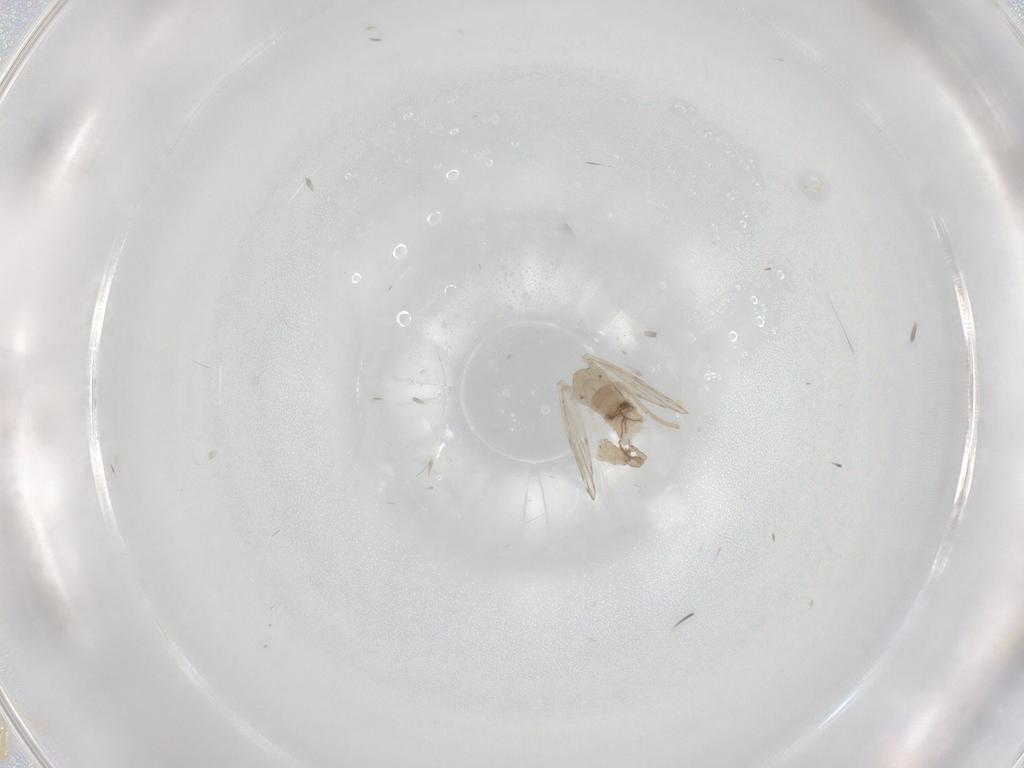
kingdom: Animalia
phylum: Arthropoda
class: Insecta
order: Diptera
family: Psychodidae
